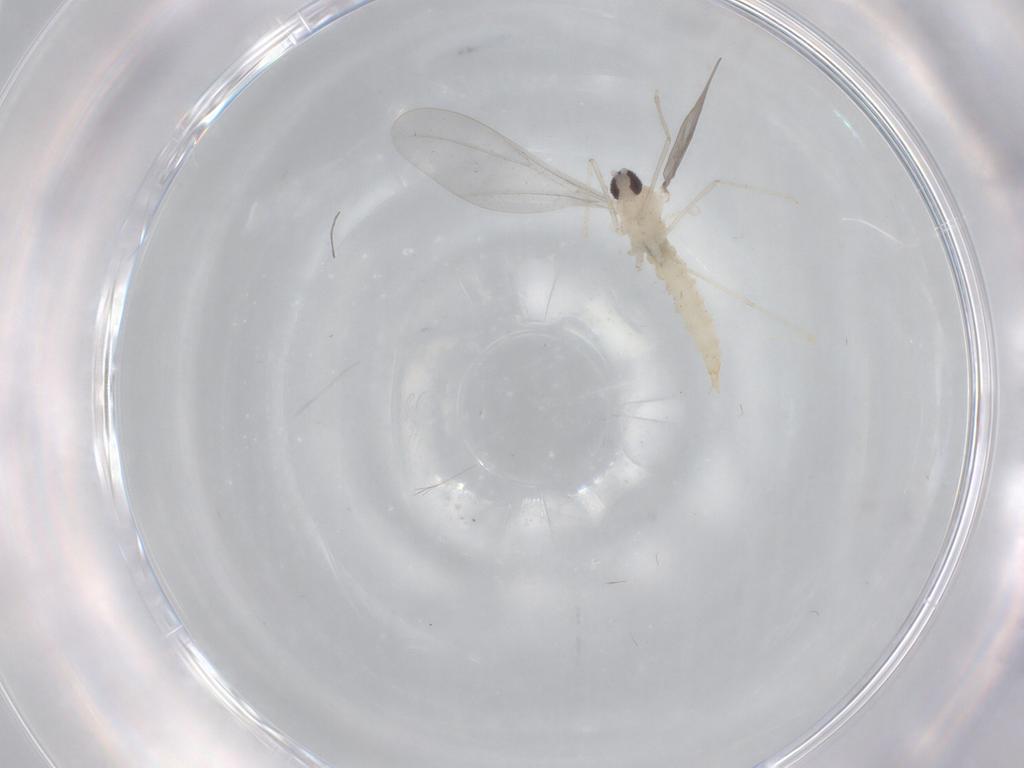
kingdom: Animalia
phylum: Arthropoda
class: Insecta
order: Diptera
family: Cecidomyiidae
